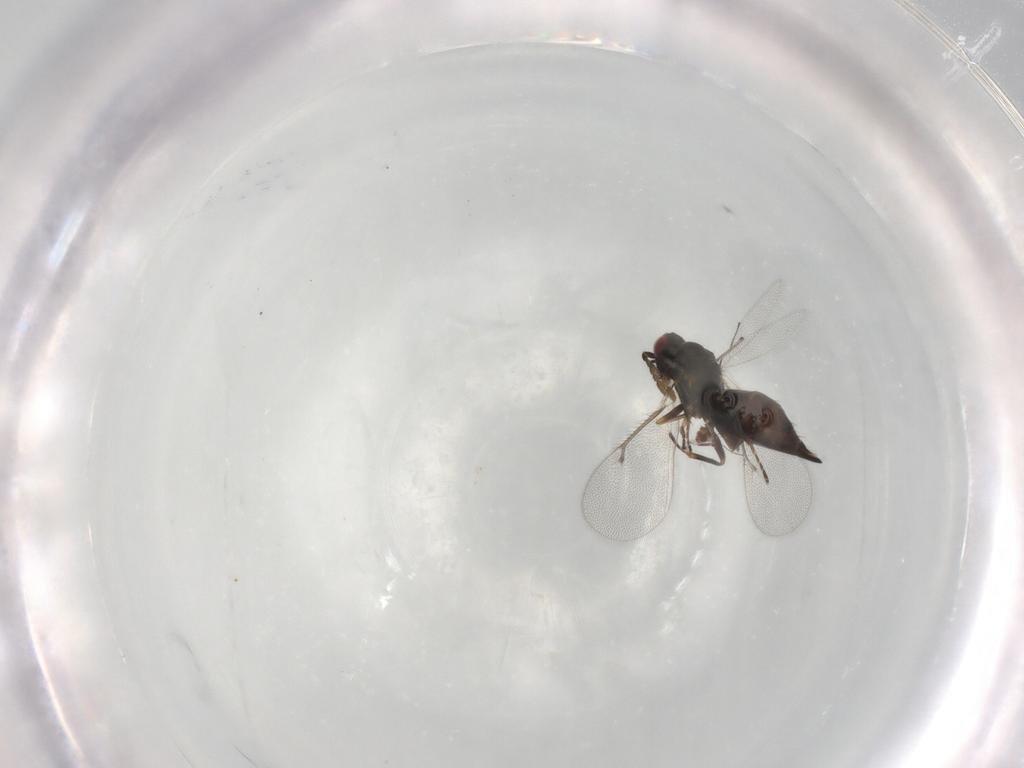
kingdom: Animalia
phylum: Arthropoda
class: Insecta
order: Hymenoptera
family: Eulophidae
